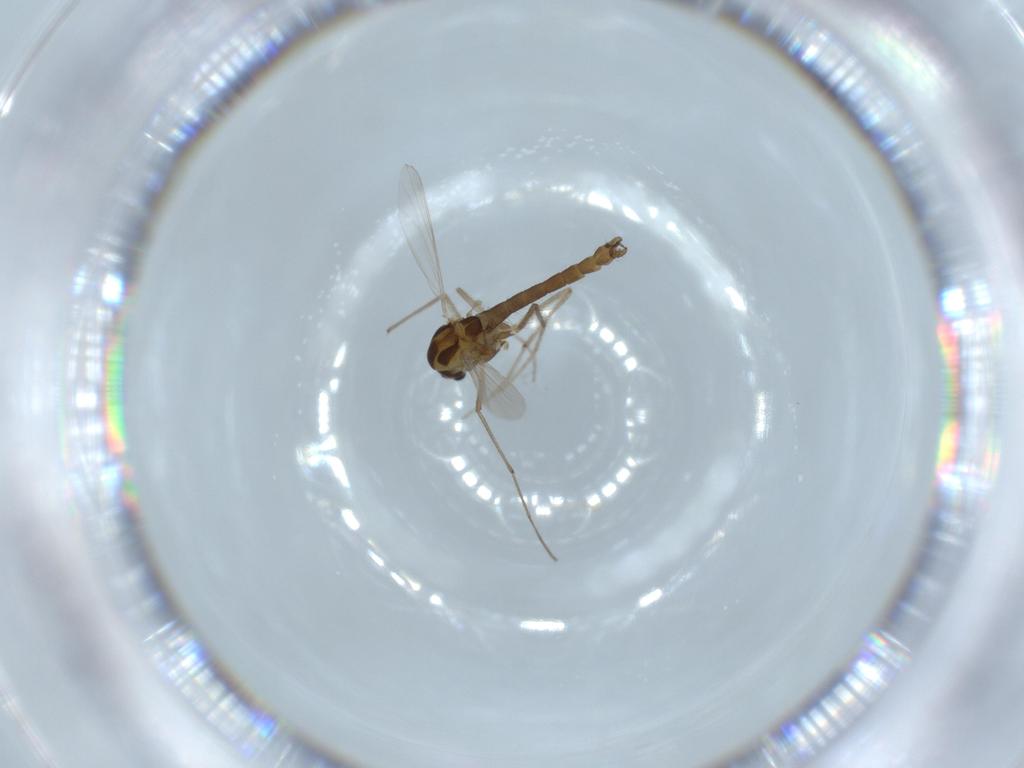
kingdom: Animalia
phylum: Arthropoda
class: Insecta
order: Diptera
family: Chironomidae
